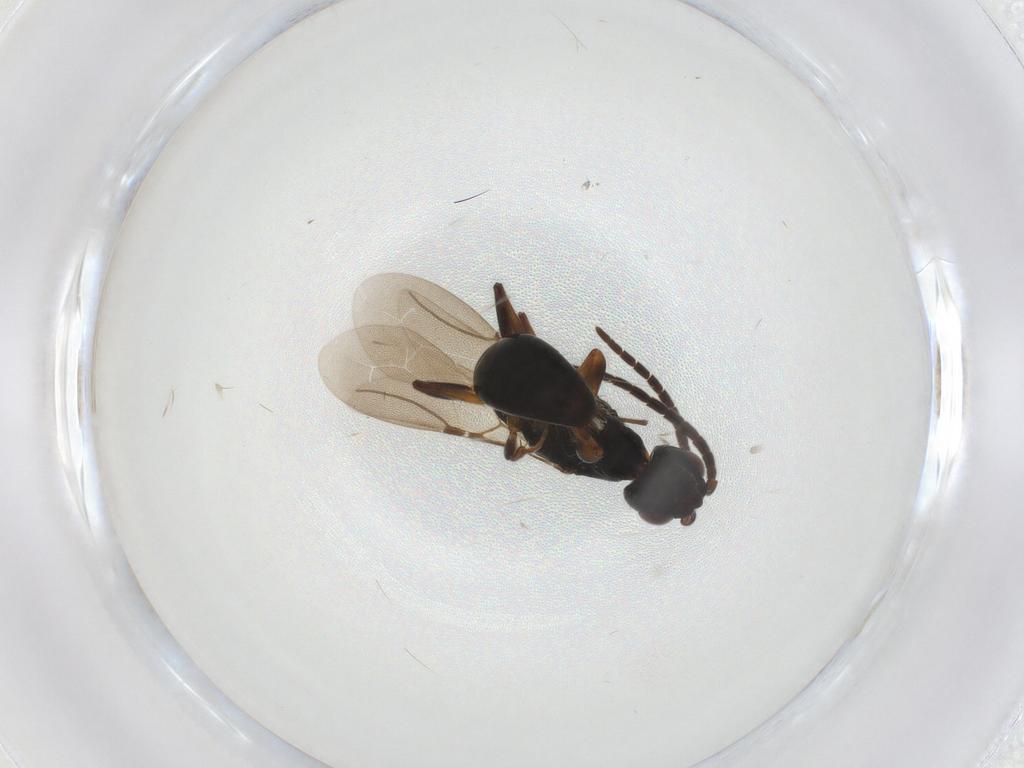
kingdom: Animalia
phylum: Arthropoda
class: Insecta
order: Hymenoptera
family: Bethylidae
